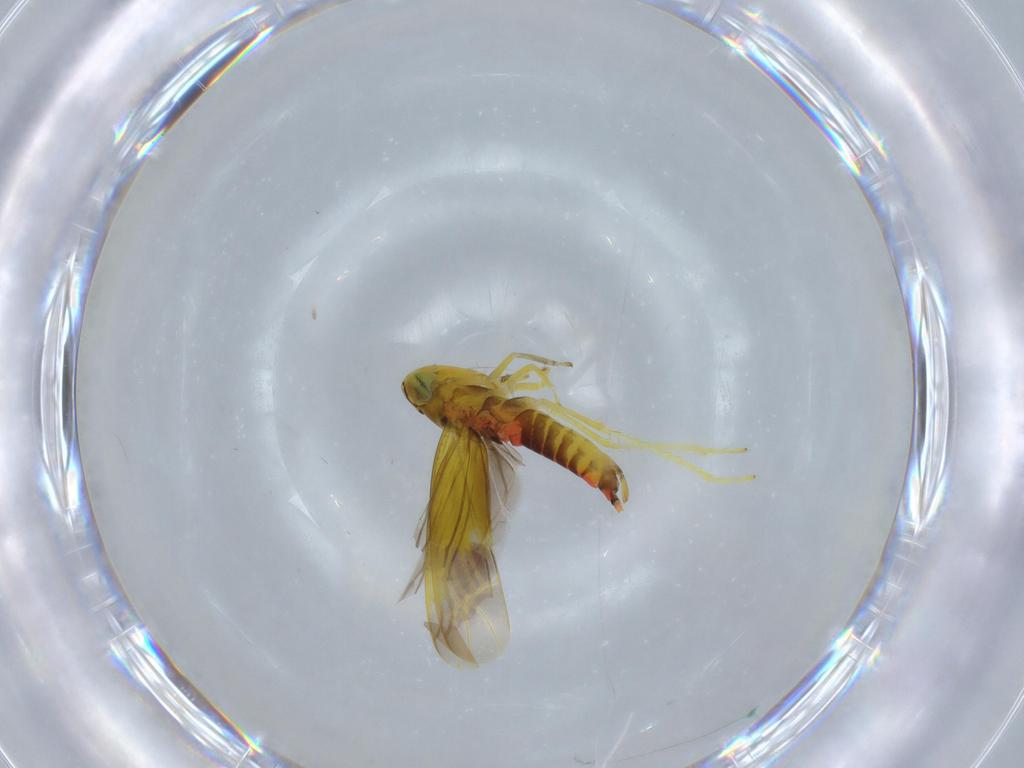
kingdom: Animalia
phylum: Arthropoda
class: Insecta
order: Hemiptera
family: Cicadellidae
